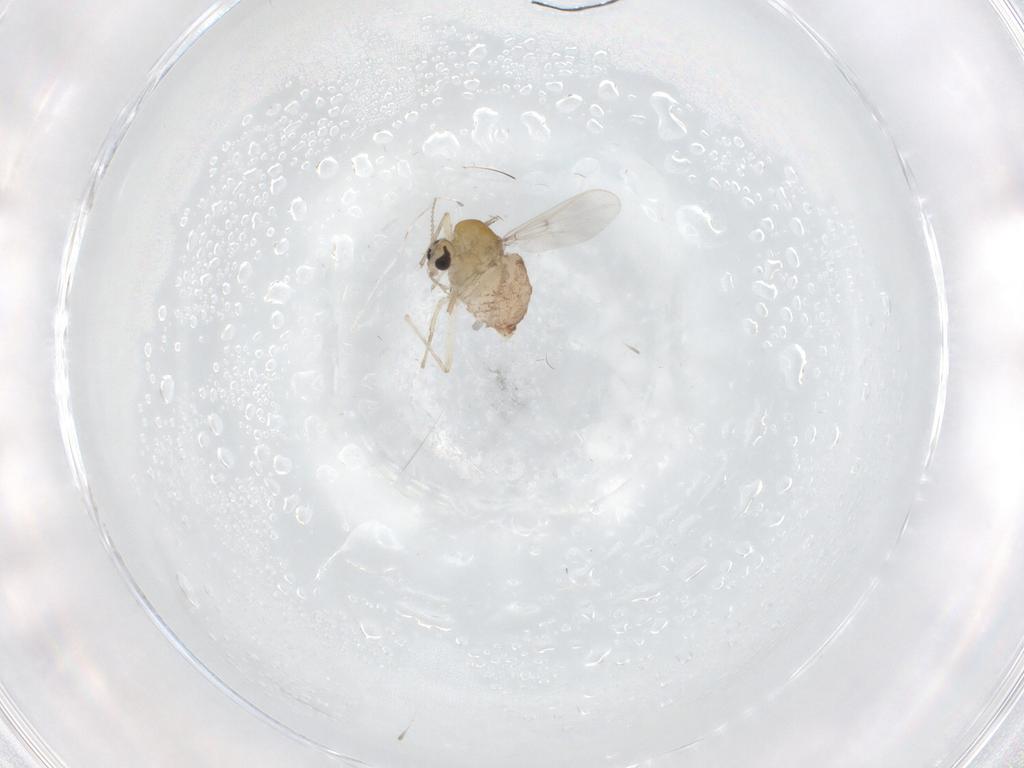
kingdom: Animalia
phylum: Arthropoda
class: Insecta
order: Diptera
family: Chironomidae
